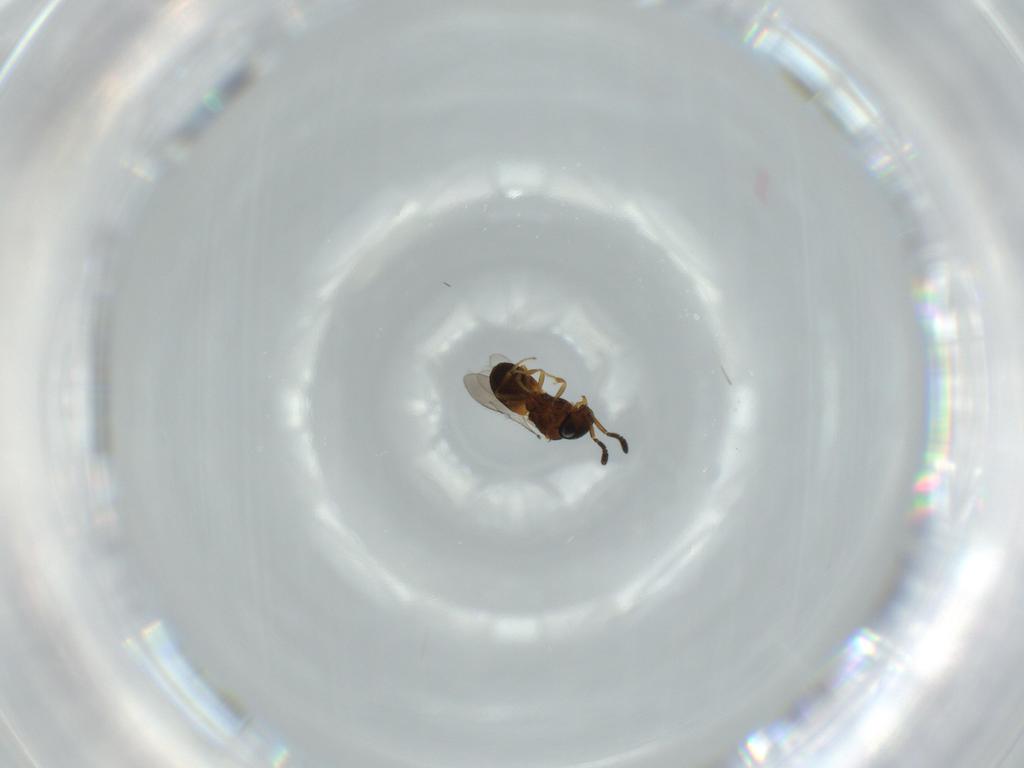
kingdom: Animalia
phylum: Arthropoda
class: Insecta
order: Hymenoptera
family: Scelionidae
